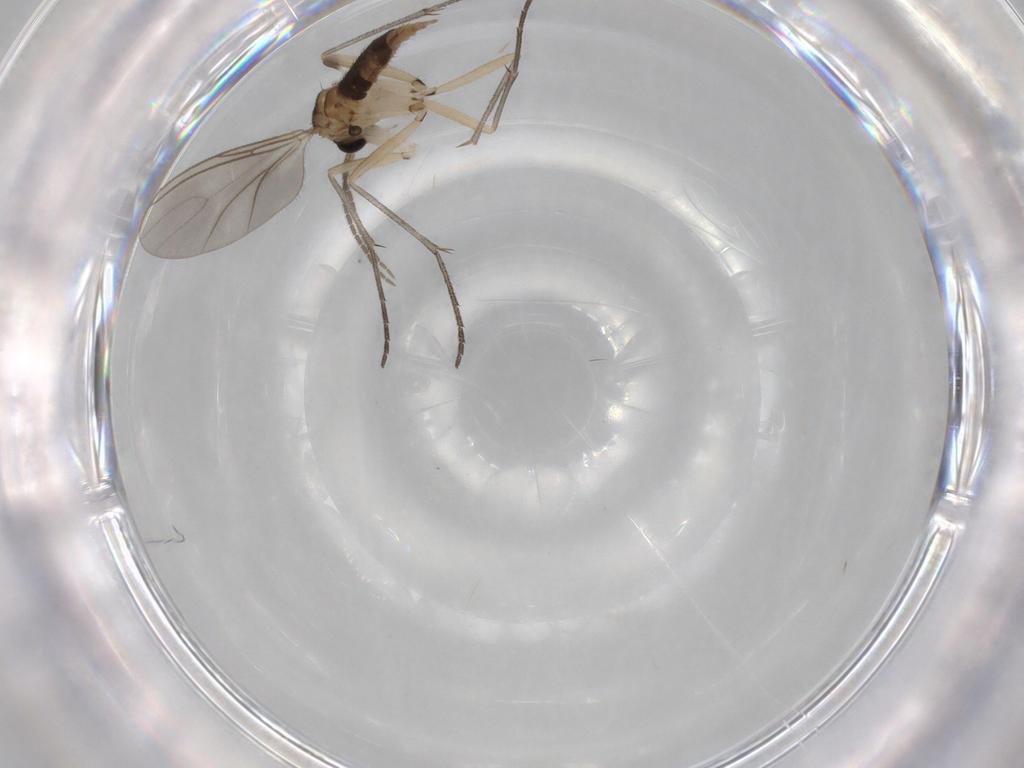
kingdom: Animalia
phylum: Arthropoda
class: Insecta
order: Diptera
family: Sciaridae
